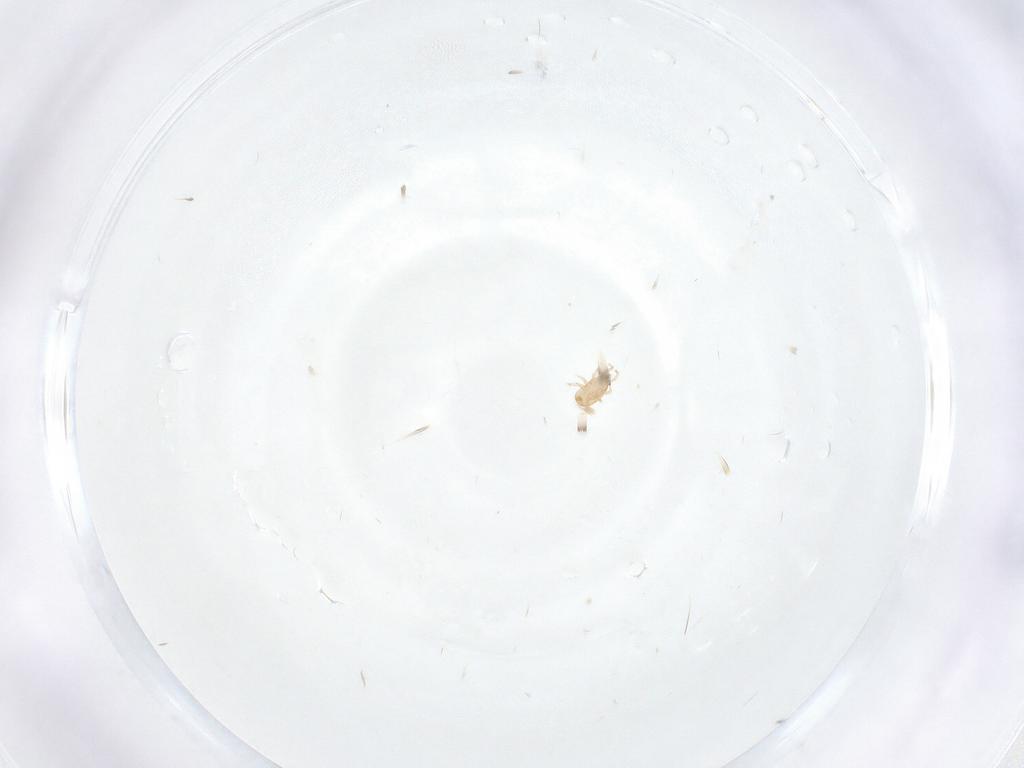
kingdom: Animalia
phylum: Arthropoda
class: Arachnida
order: Mesostigmata
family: Ascidae
